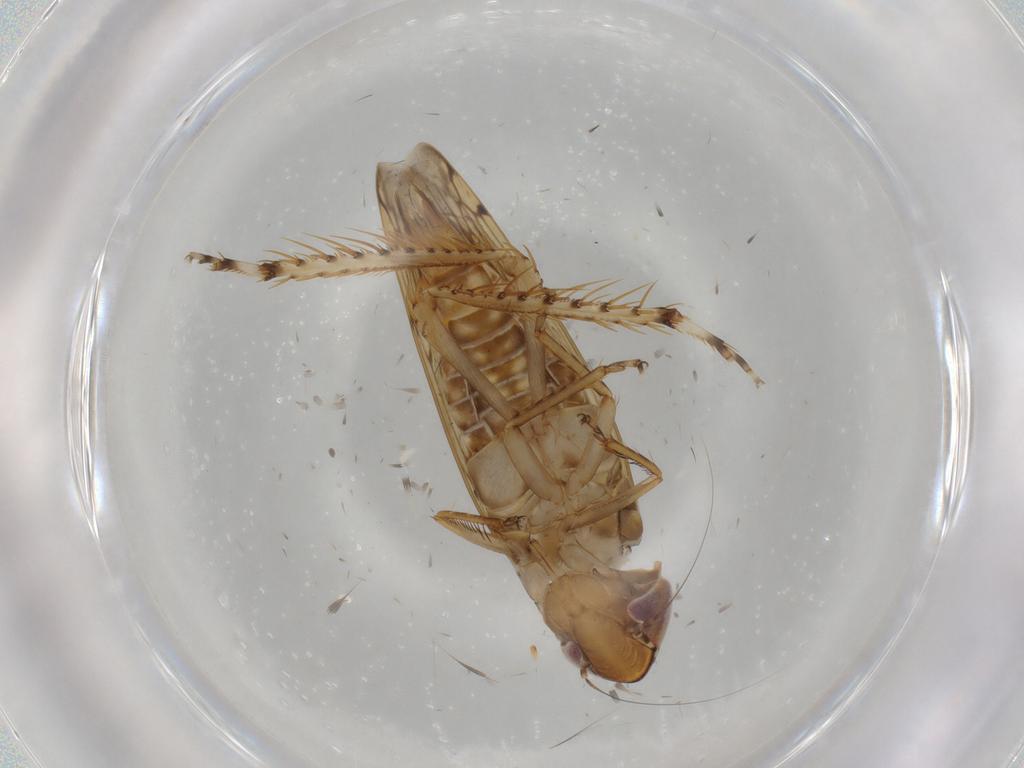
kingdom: Animalia
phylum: Arthropoda
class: Insecta
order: Hemiptera
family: Cicadellidae
